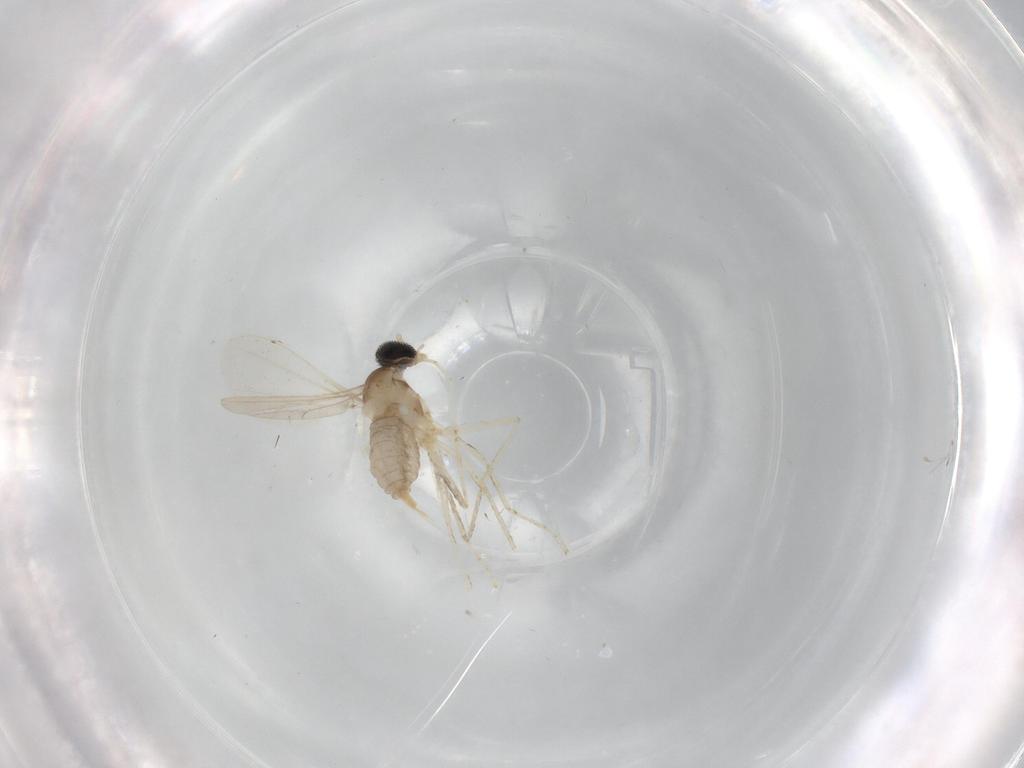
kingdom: Animalia
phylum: Arthropoda
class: Insecta
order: Diptera
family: Cecidomyiidae
